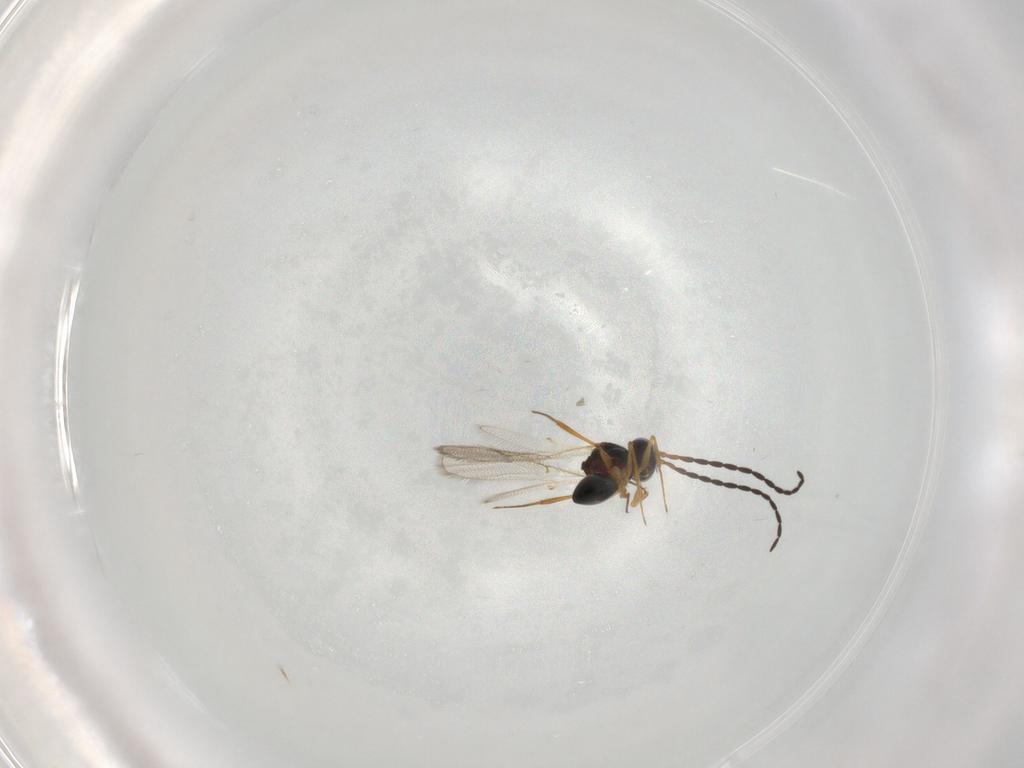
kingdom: Animalia
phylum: Arthropoda
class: Insecta
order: Hymenoptera
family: Figitidae
